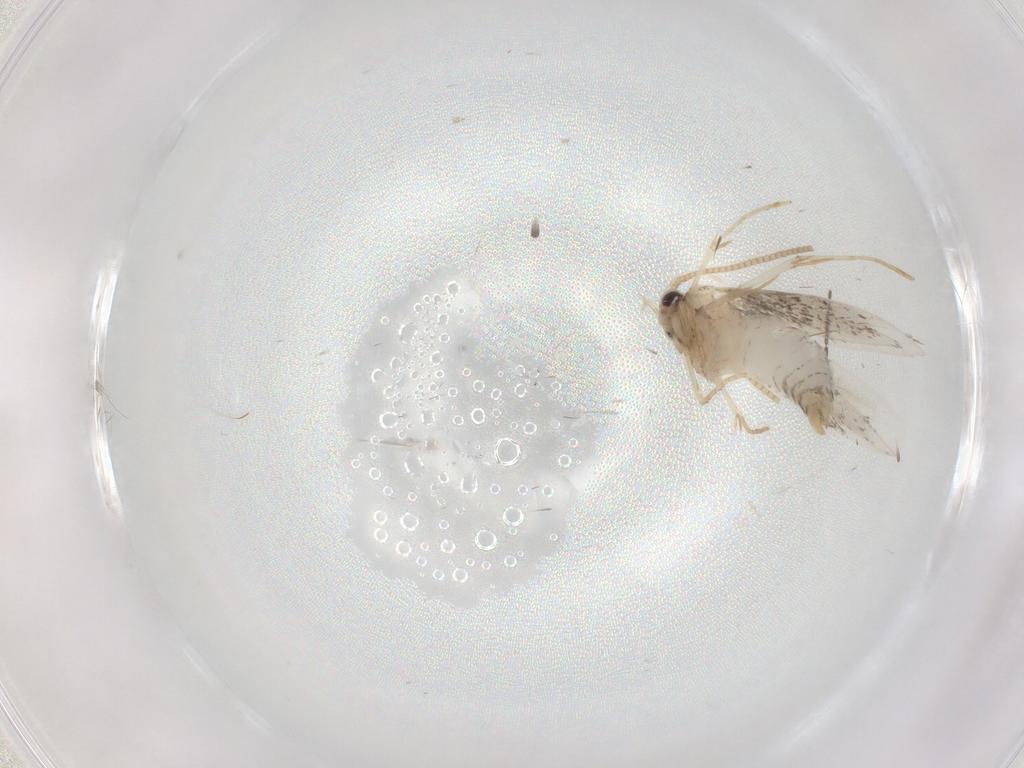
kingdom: Animalia
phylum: Arthropoda
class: Insecta
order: Lepidoptera
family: Tineidae
